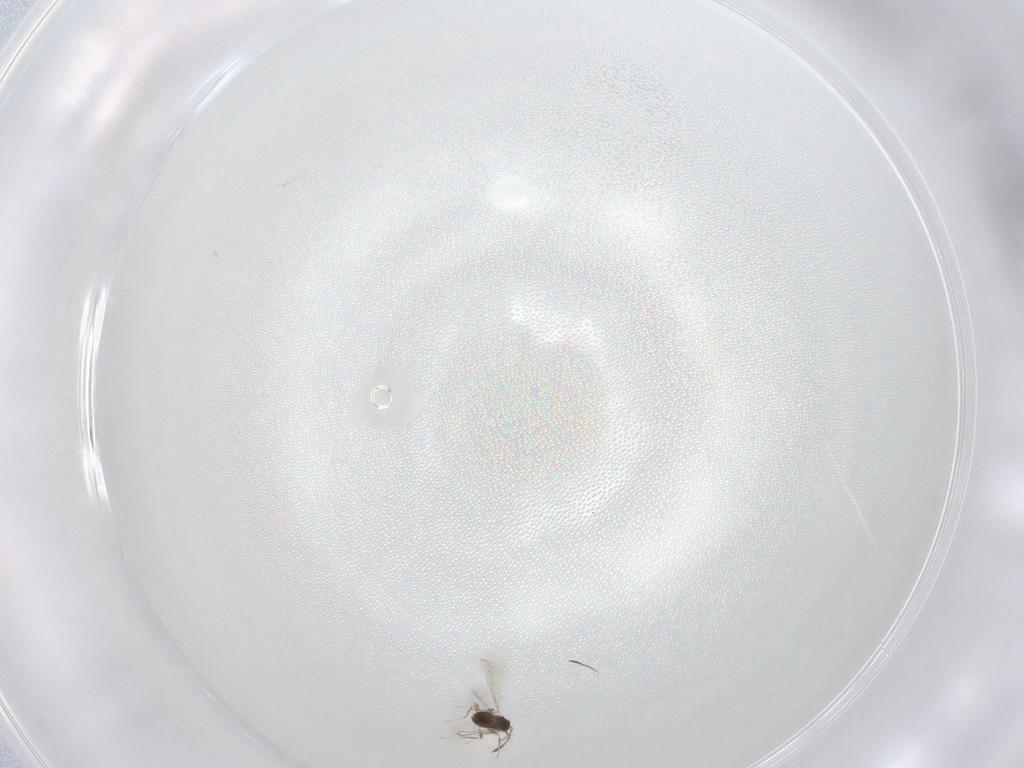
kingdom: Animalia
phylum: Arthropoda
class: Insecta
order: Hymenoptera
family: Mymaridae
